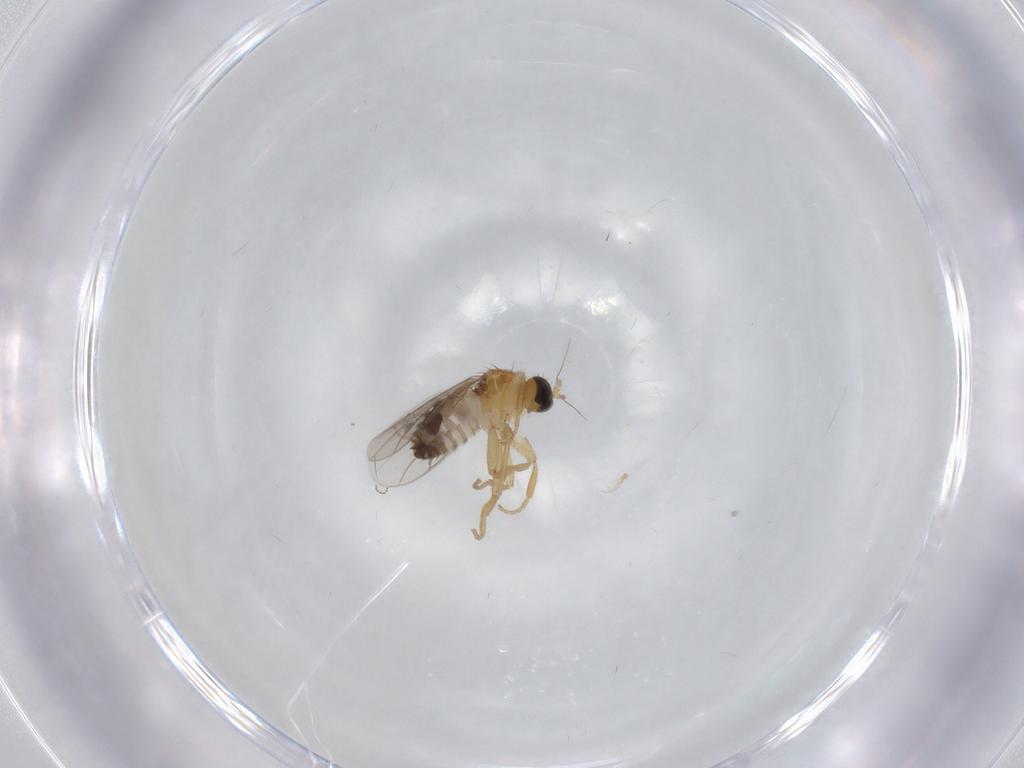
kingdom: Animalia
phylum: Arthropoda
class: Insecta
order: Diptera
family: Hybotidae
